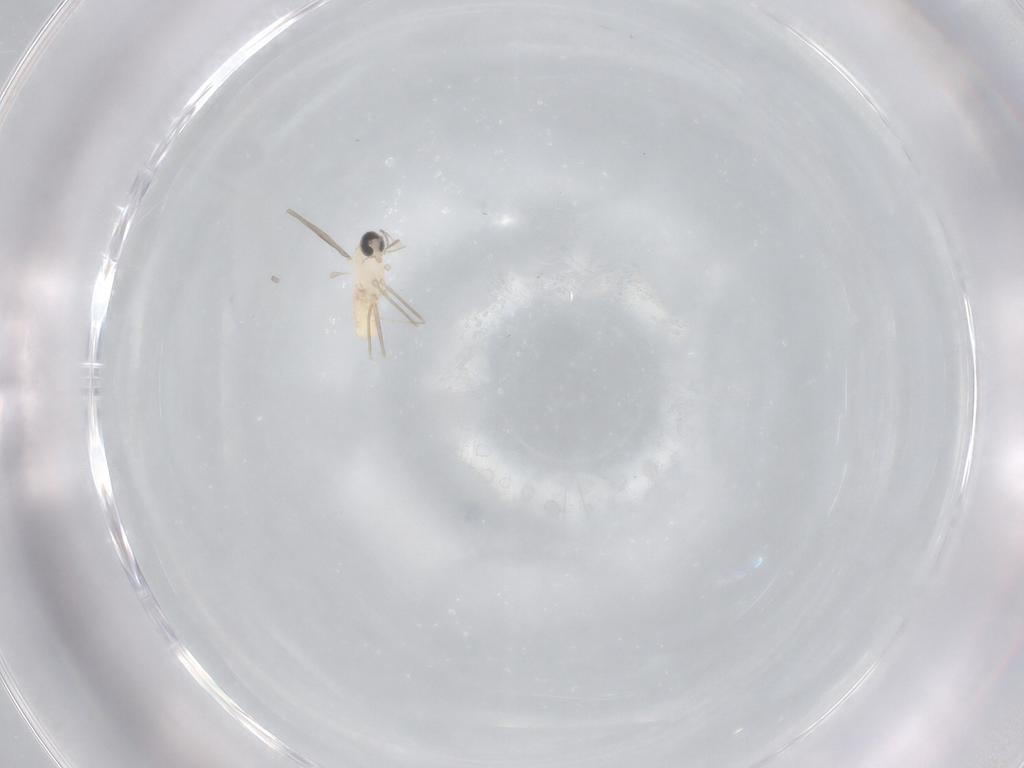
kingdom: Animalia
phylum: Arthropoda
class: Insecta
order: Diptera
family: Cecidomyiidae
